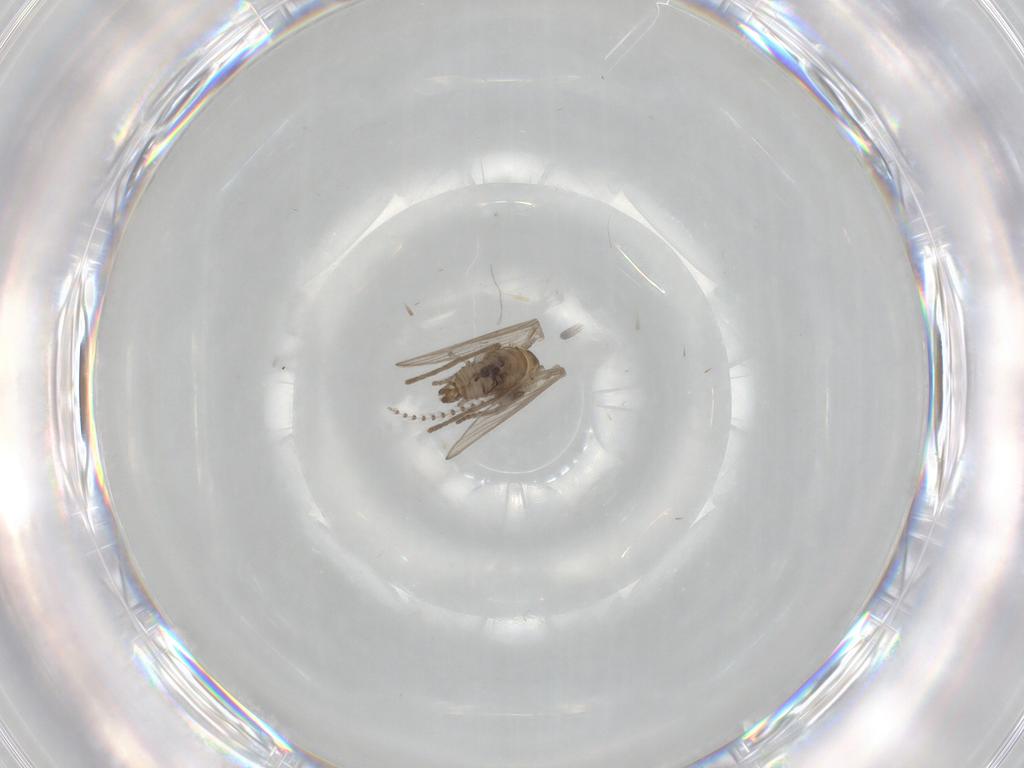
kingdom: Animalia
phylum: Arthropoda
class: Insecta
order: Diptera
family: Psychodidae
